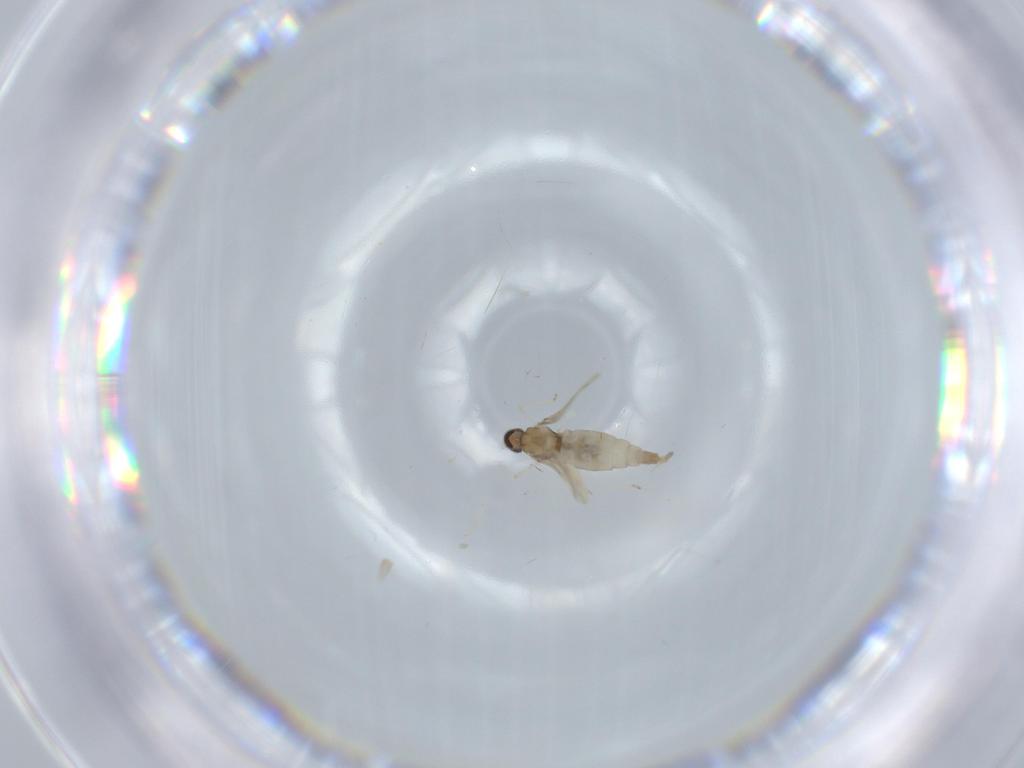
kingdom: Animalia
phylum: Arthropoda
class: Insecta
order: Diptera
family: Cecidomyiidae
